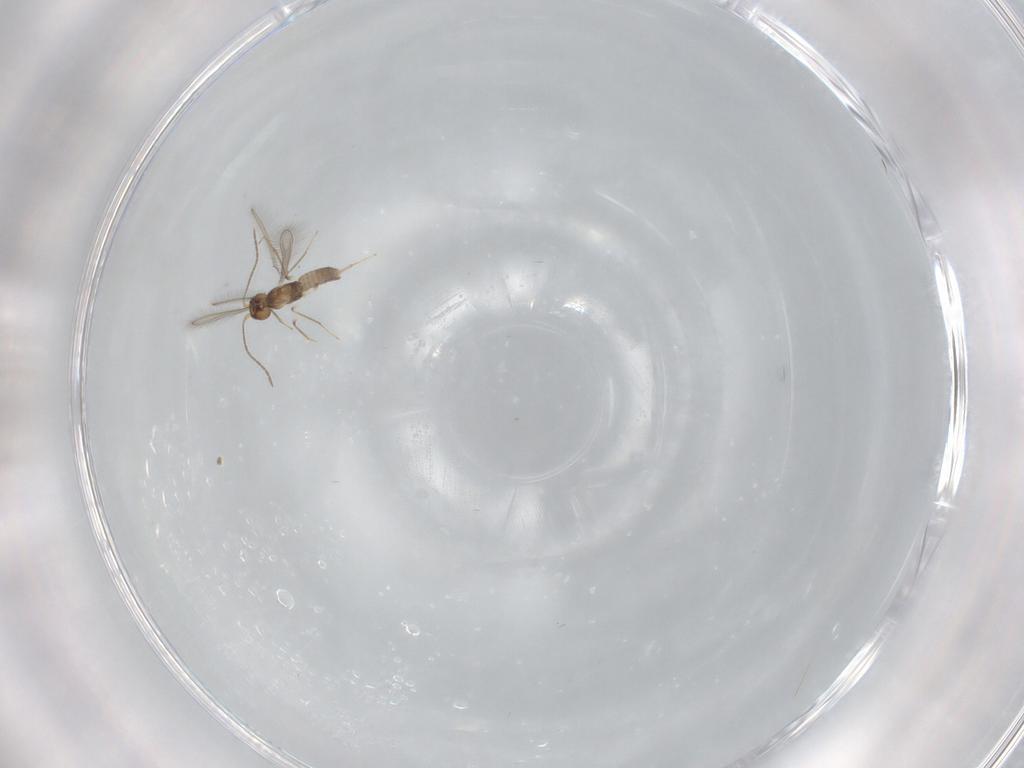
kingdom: Animalia
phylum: Arthropoda
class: Insecta
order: Hymenoptera
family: Mymaridae
